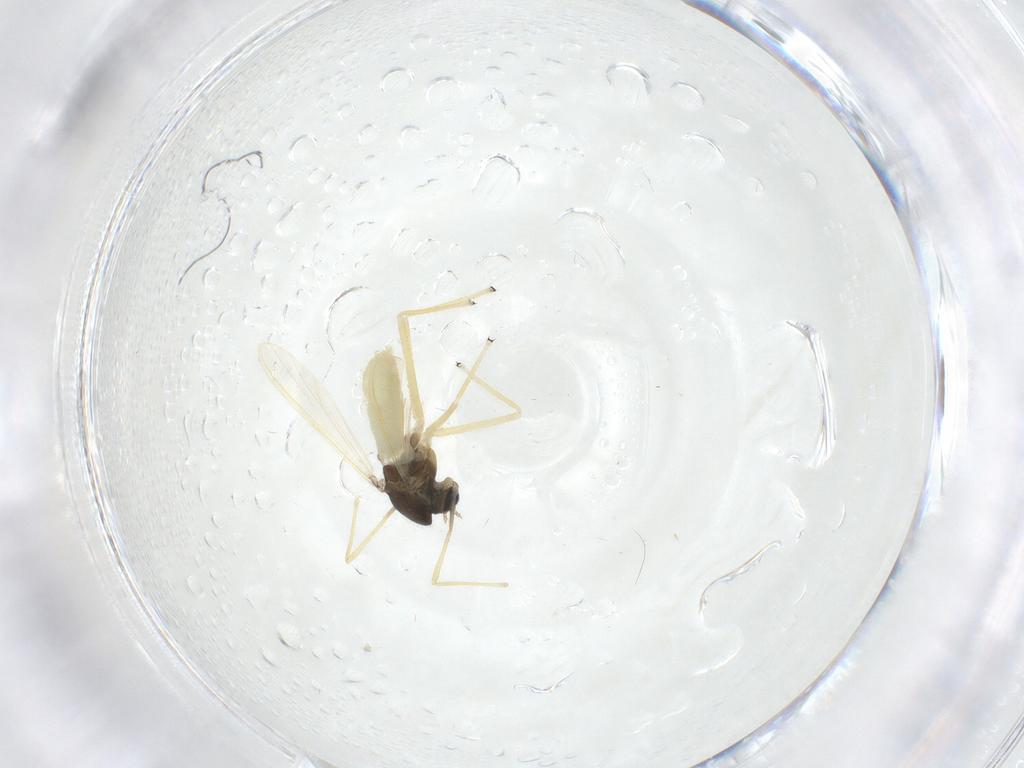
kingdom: Animalia
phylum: Arthropoda
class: Insecta
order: Diptera
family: Chironomidae
